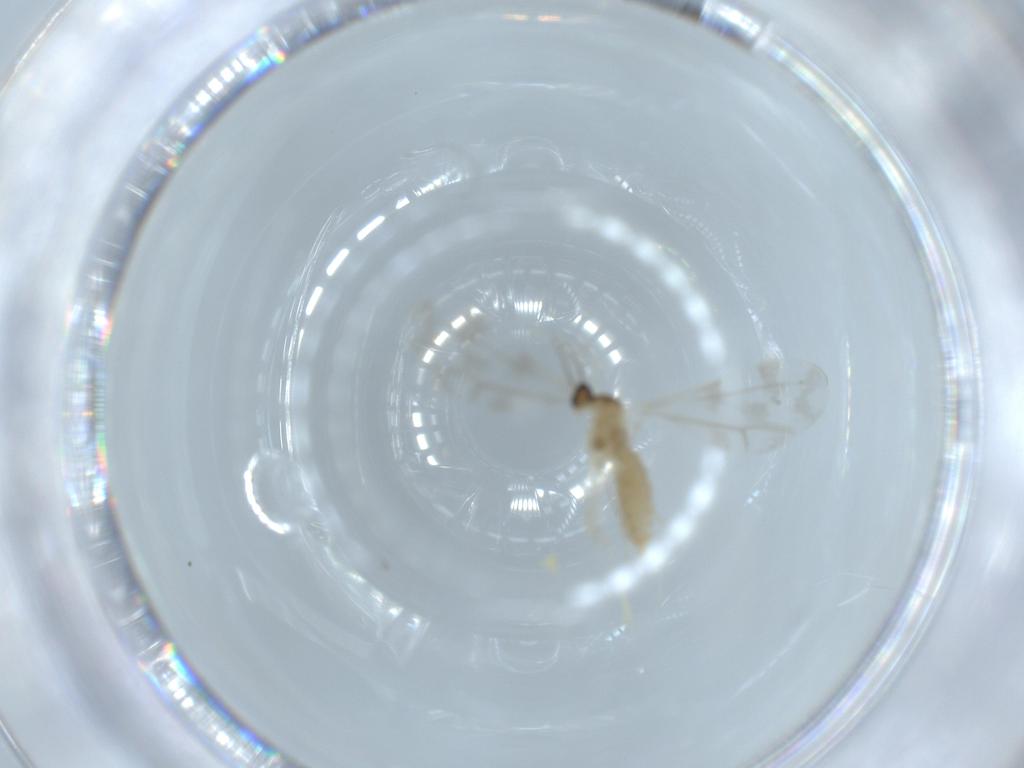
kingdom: Animalia
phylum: Arthropoda
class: Insecta
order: Diptera
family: Cecidomyiidae
